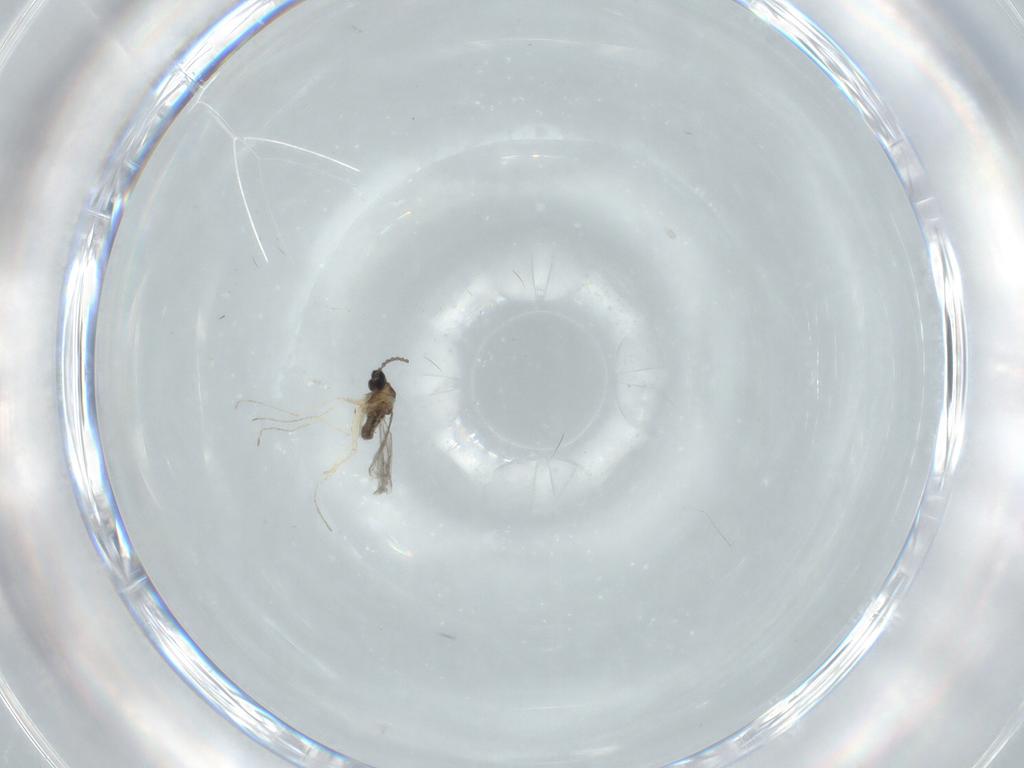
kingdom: Animalia
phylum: Arthropoda
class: Insecta
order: Diptera
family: Cecidomyiidae
